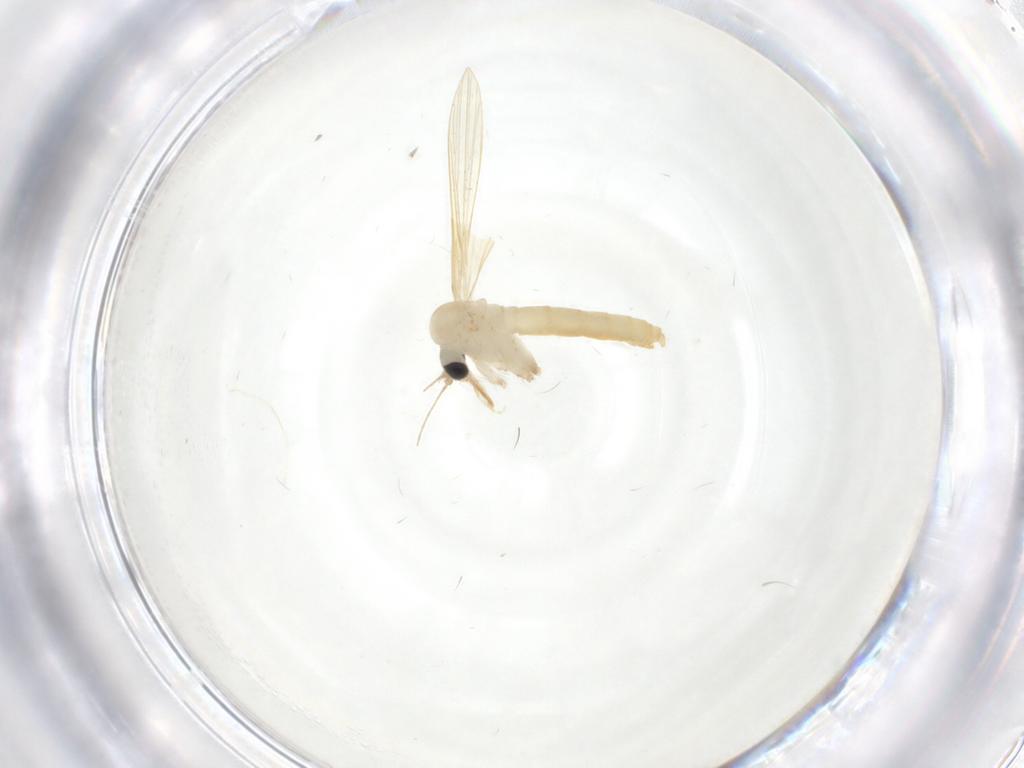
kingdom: Animalia
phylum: Arthropoda
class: Insecta
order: Diptera
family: Psychodidae
